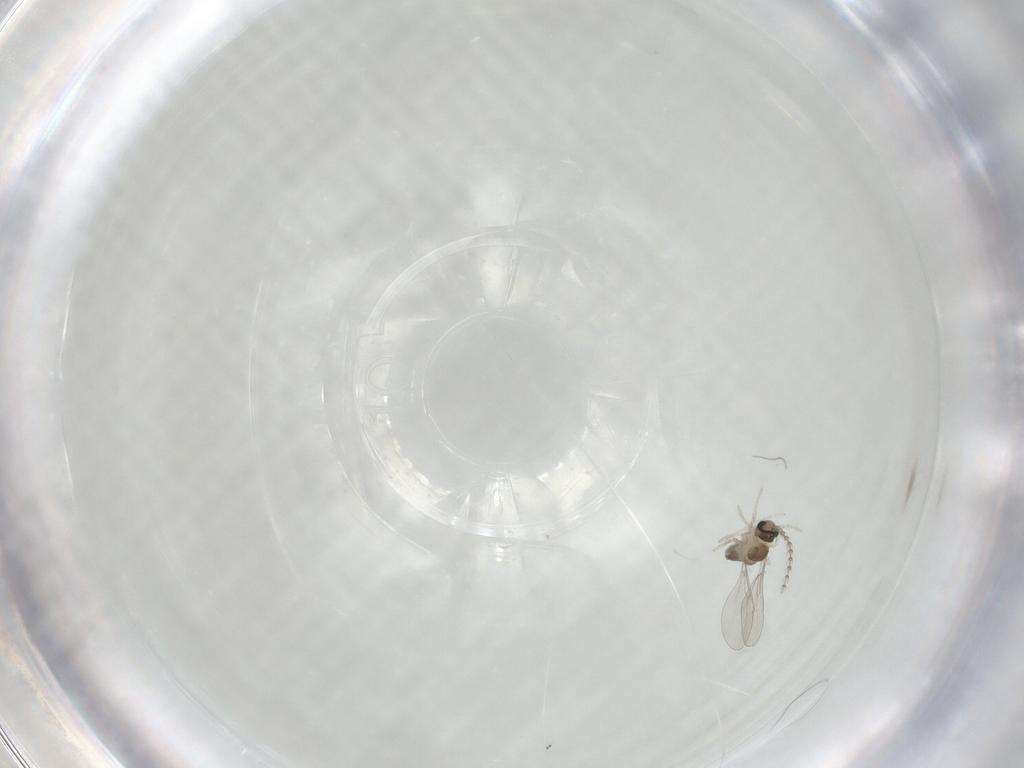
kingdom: Animalia
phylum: Arthropoda
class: Insecta
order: Diptera
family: Cecidomyiidae
